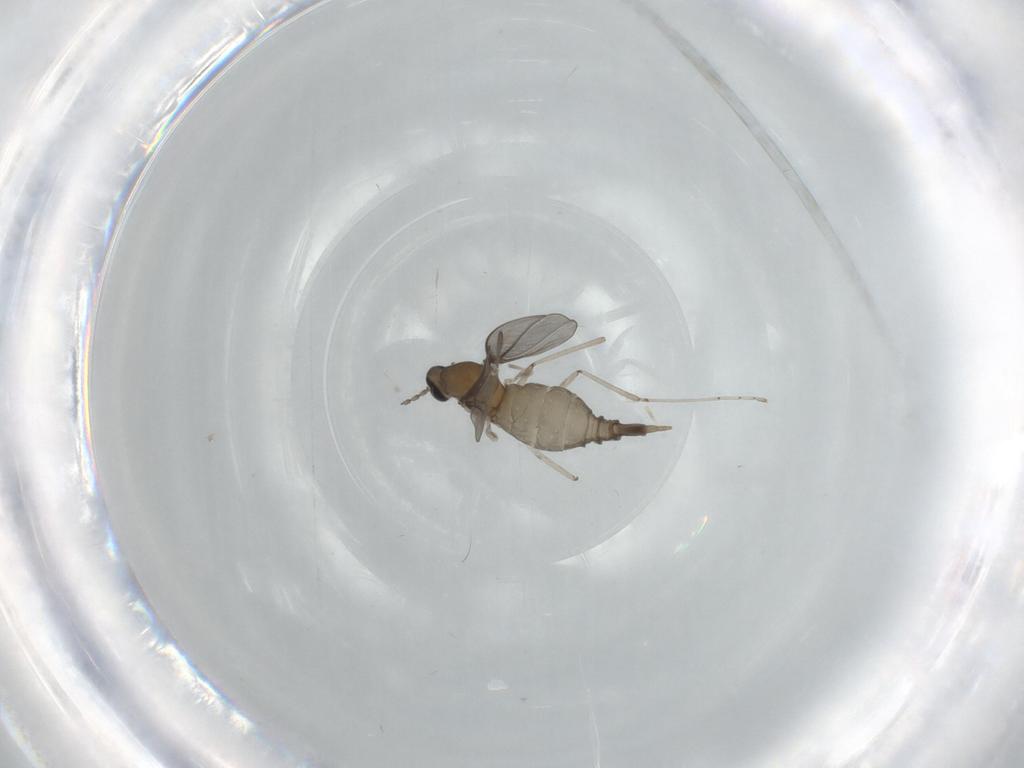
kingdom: Animalia
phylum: Arthropoda
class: Insecta
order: Diptera
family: Cecidomyiidae
